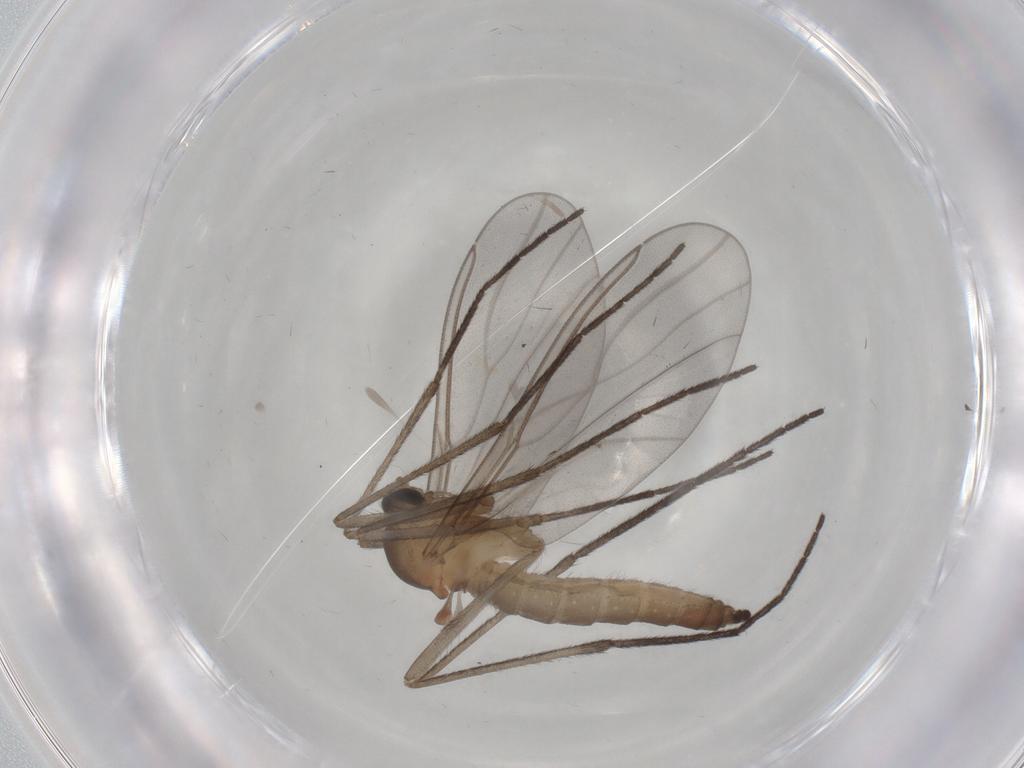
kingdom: Animalia
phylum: Arthropoda
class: Insecta
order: Diptera
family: Cecidomyiidae
